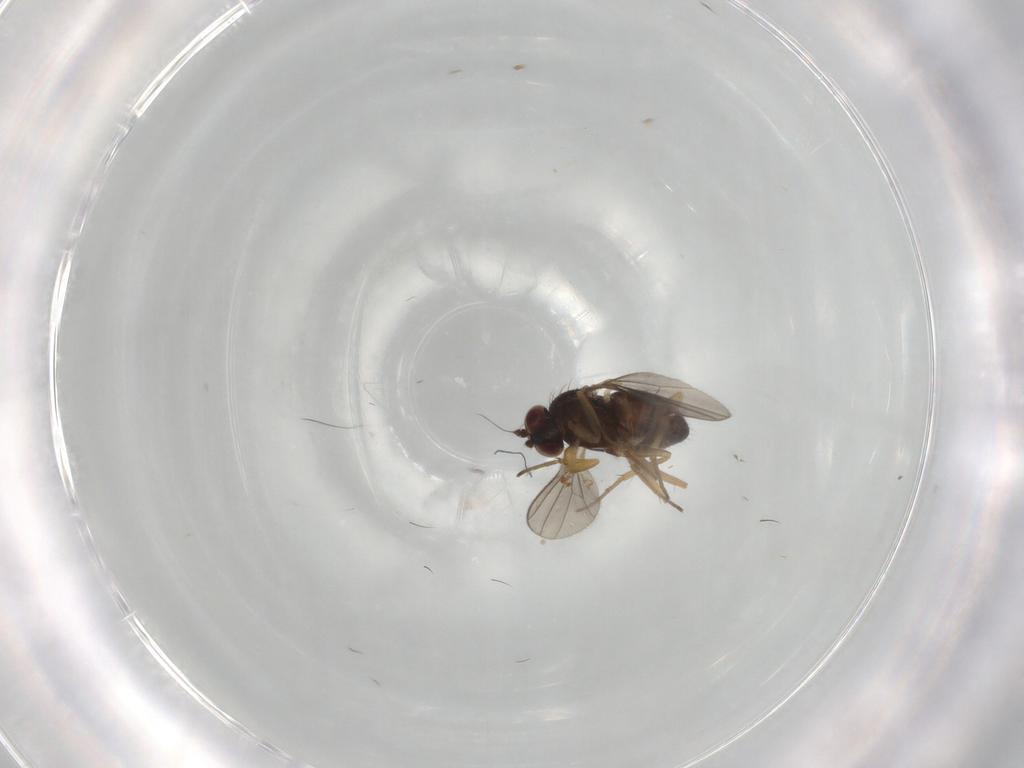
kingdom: Animalia
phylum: Arthropoda
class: Insecta
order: Diptera
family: Dolichopodidae
